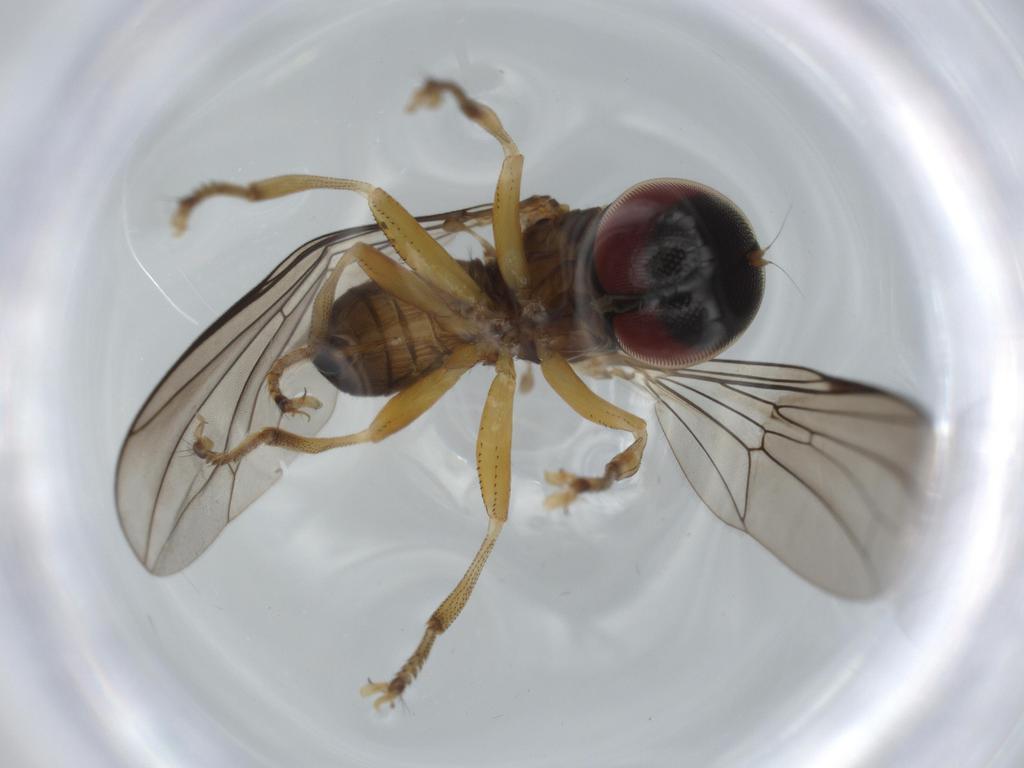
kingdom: Animalia
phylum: Arthropoda
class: Insecta
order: Diptera
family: Pipunculidae
